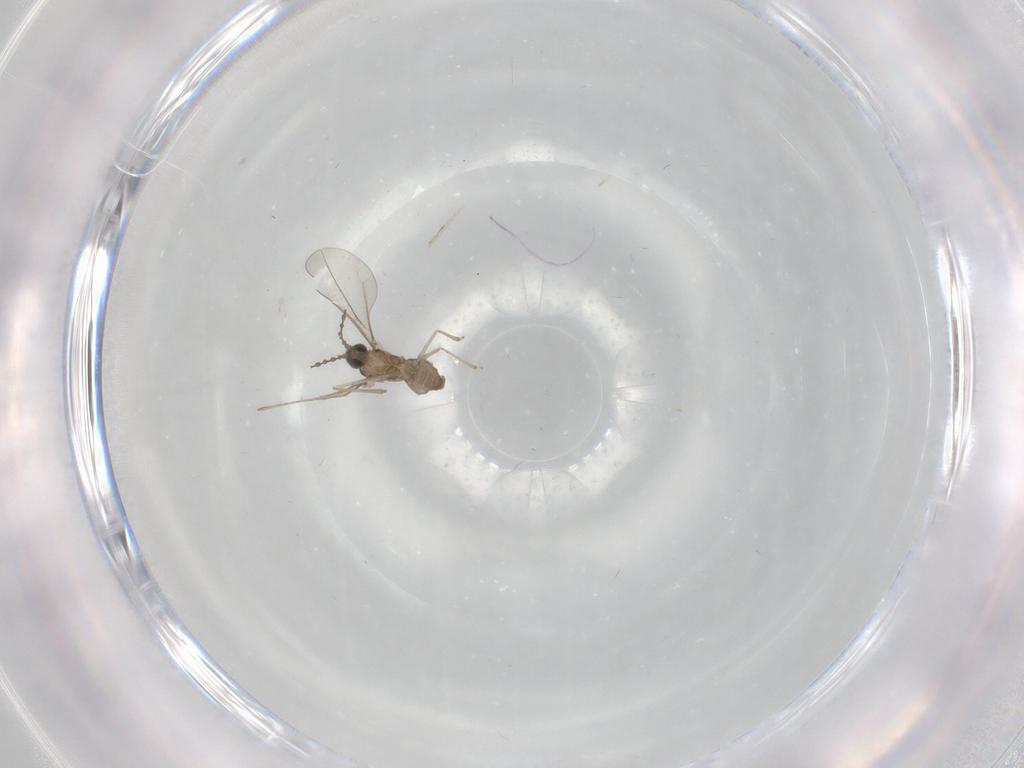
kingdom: Animalia
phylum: Arthropoda
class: Insecta
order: Diptera
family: Cecidomyiidae
